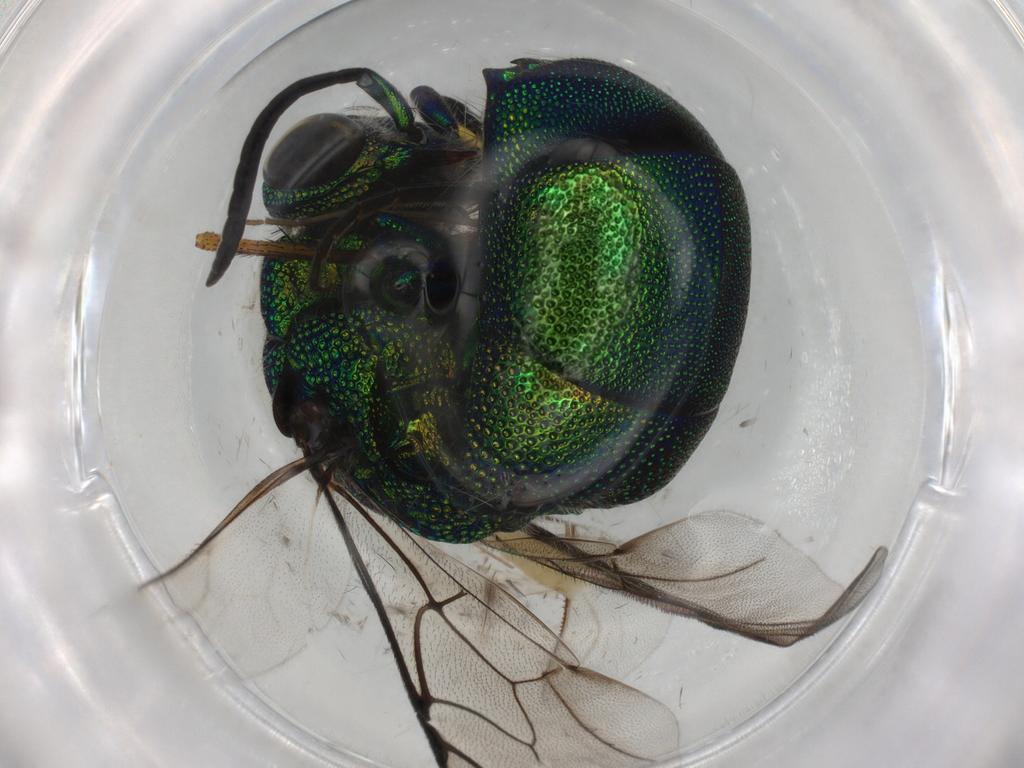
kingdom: Animalia
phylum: Arthropoda
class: Insecta
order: Hymenoptera
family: Chrysididae
